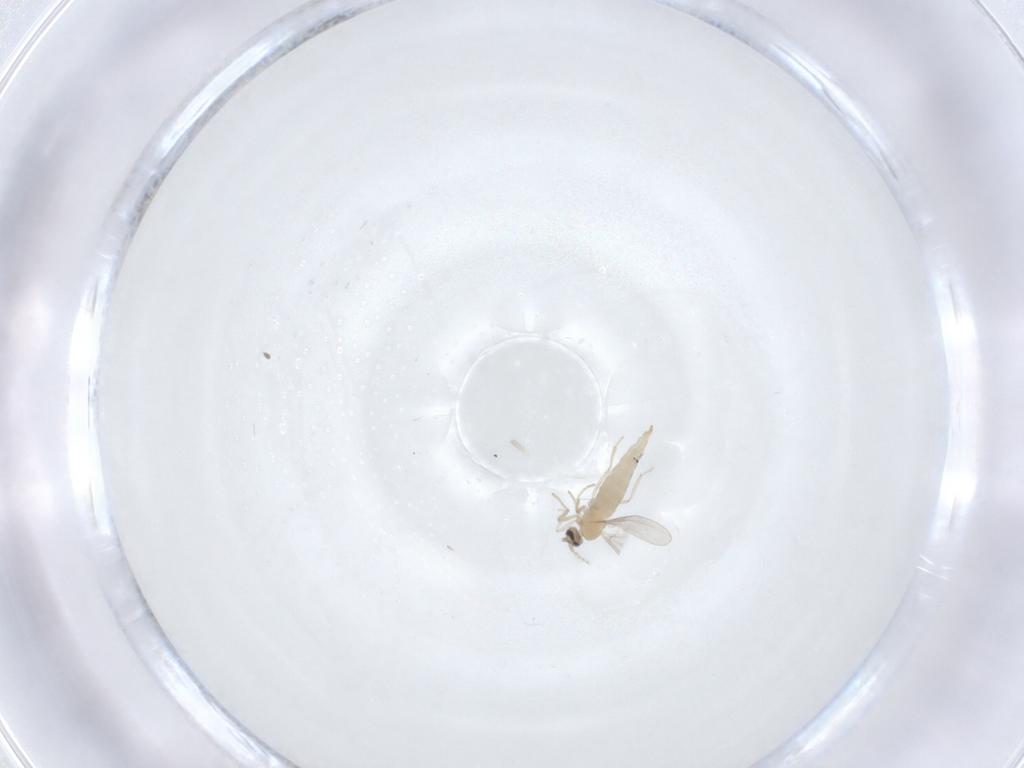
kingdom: Animalia
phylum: Arthropoda
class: Insecta
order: Diptera
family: Cecidomyiidae
